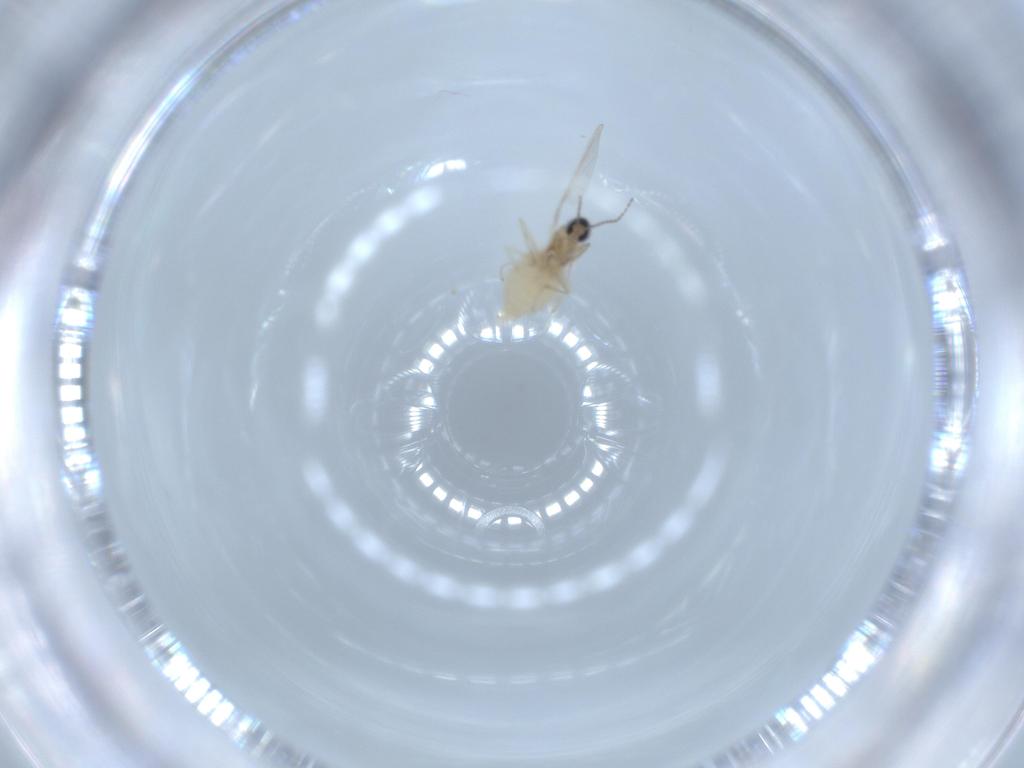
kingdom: Animalia
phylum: Arthropoda
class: Insecta
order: Diptera
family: Cecidomyiidae
